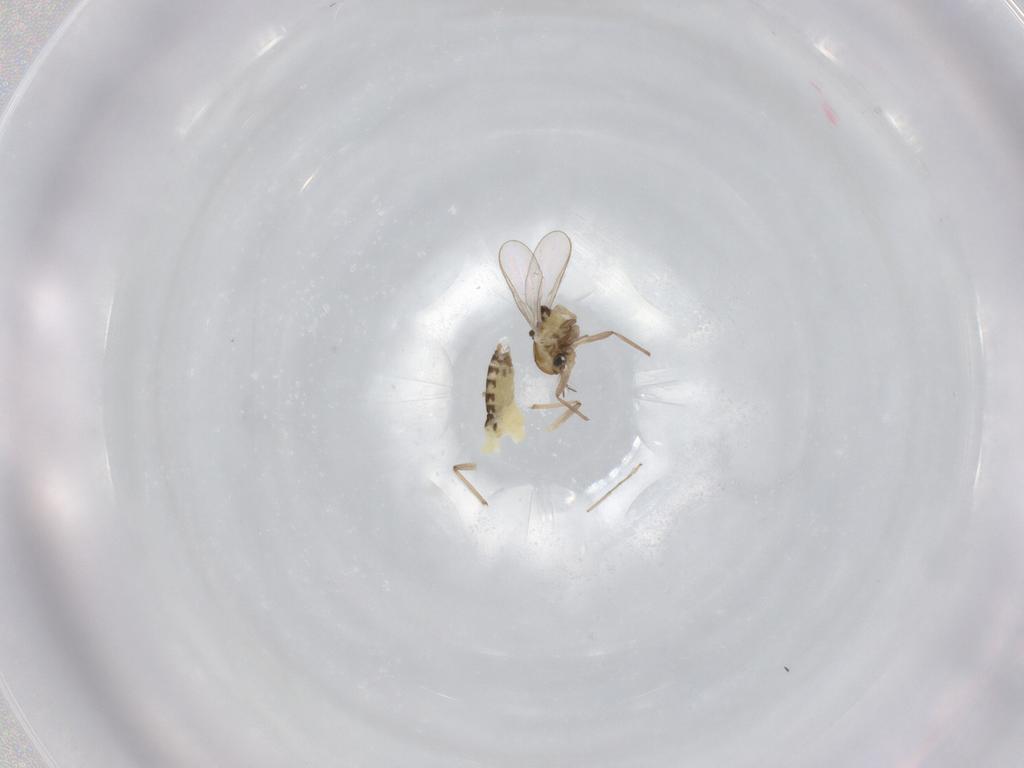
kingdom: Animalia
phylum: Arthropoda
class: Insecta
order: Diptera
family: Chironomidae
